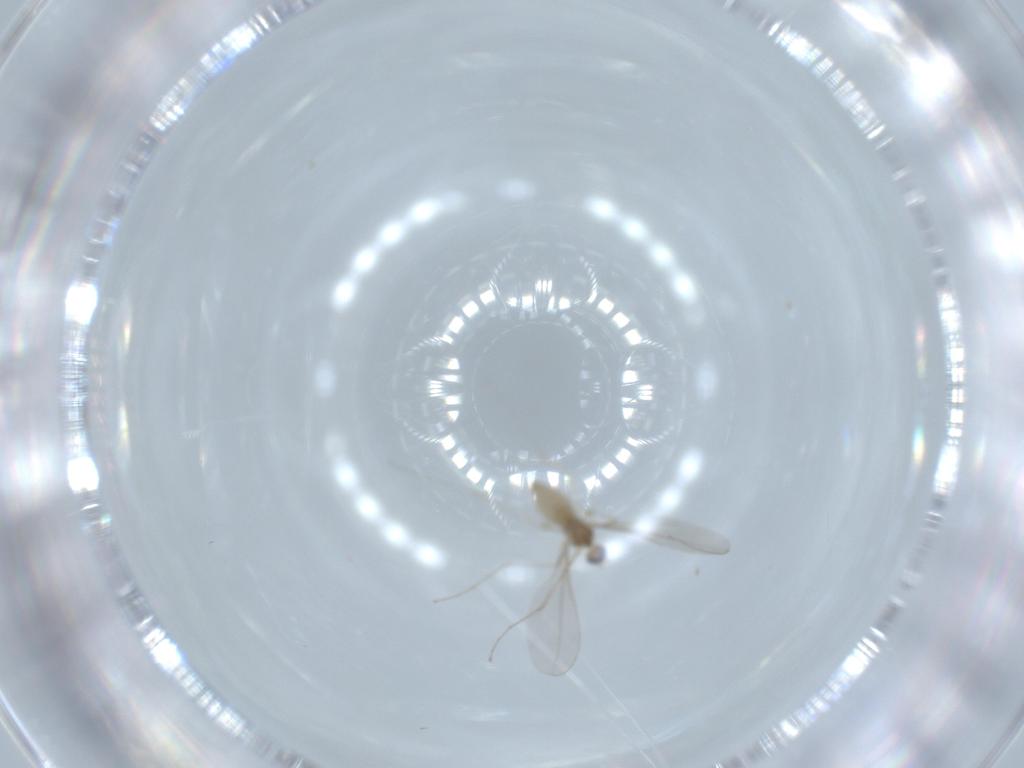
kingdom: Animalia
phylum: Arthropoda
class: Insecta
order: Diptera
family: Cecidomyiidae
